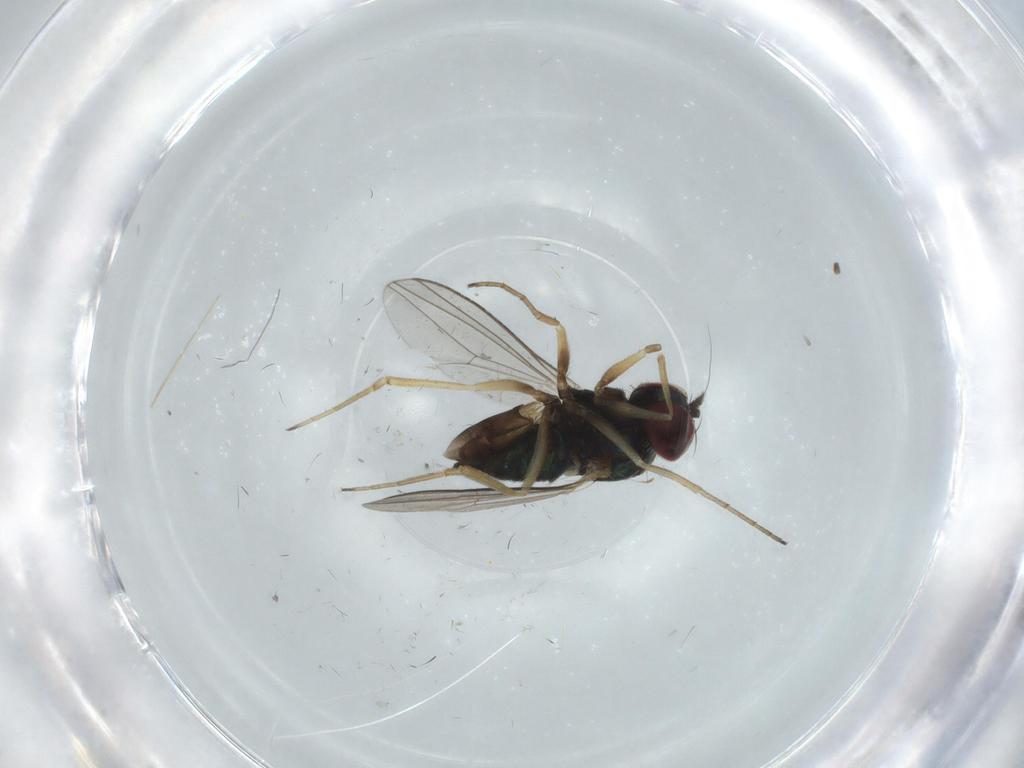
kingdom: Animalia
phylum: Arthropoda
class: Insecta
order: Diptera
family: Dolichopodidae
